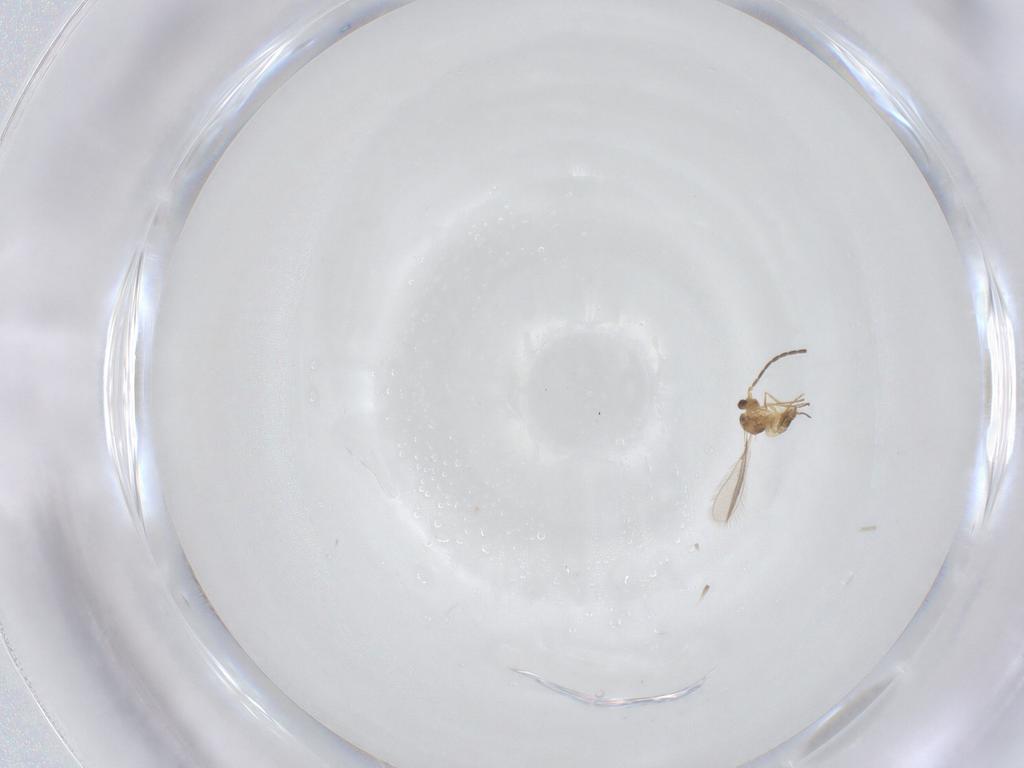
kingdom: Animalia
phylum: Arthropoda
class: Insecta
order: Hymenoptera
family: Mymaridae
